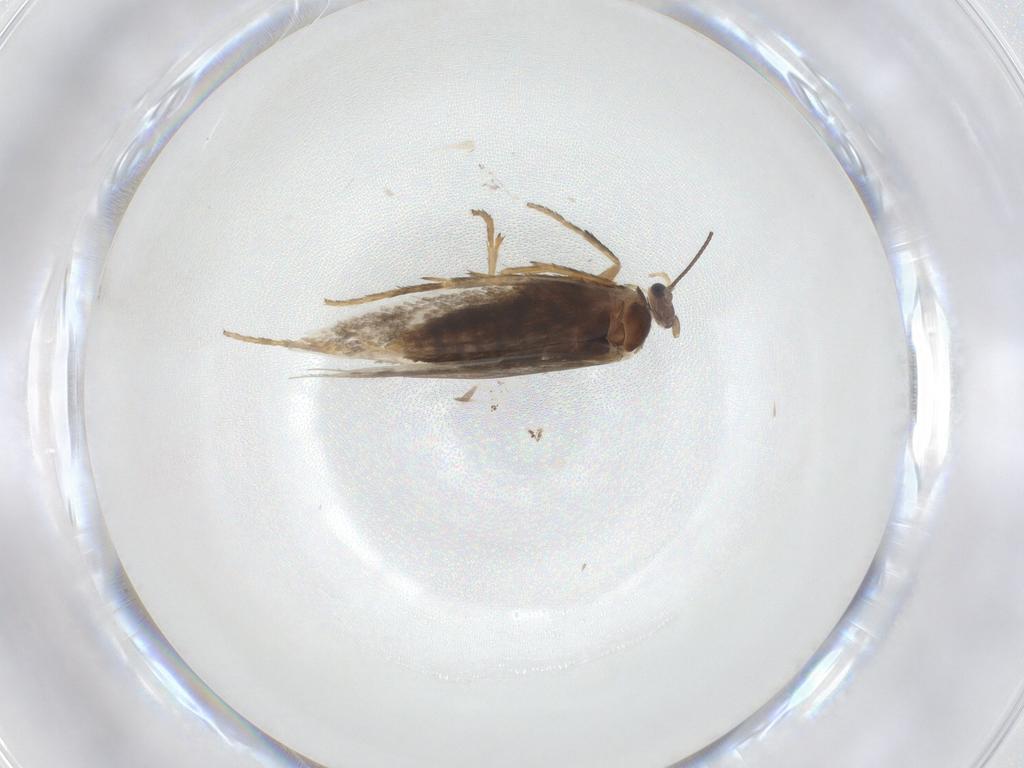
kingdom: Animalia
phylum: Arthropoda
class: Insecta
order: Lepidoptera
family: Nepticulidae
